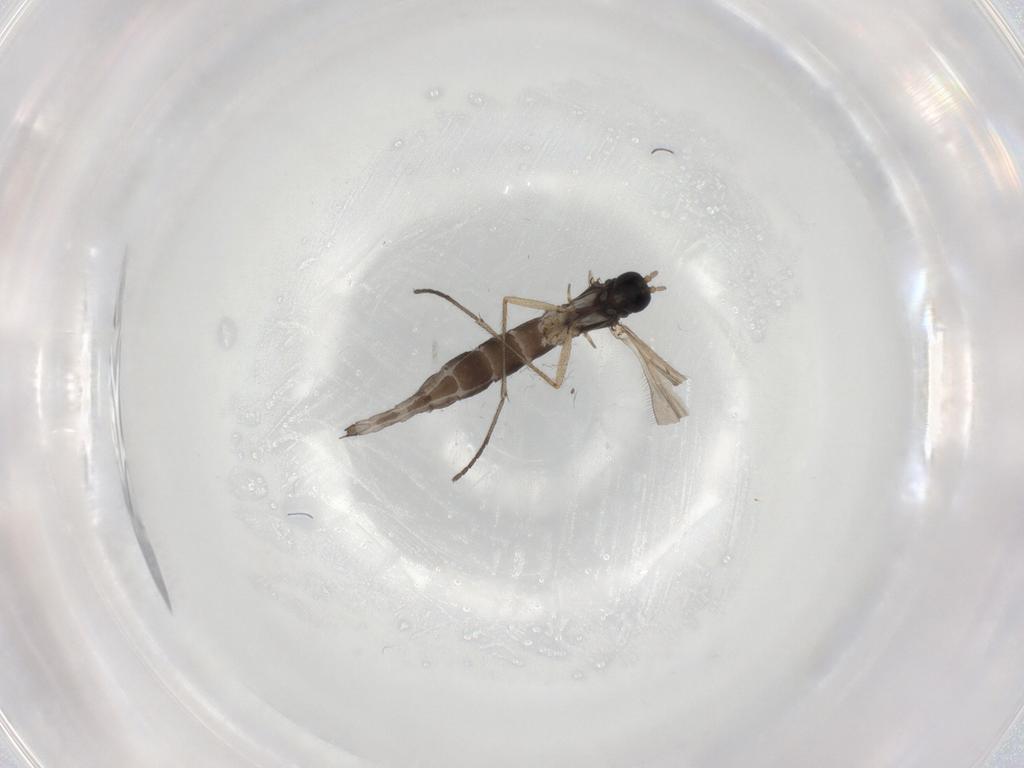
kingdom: Animalia
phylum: Arthropoda
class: Insecta
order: Diptera
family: Sciaridae
